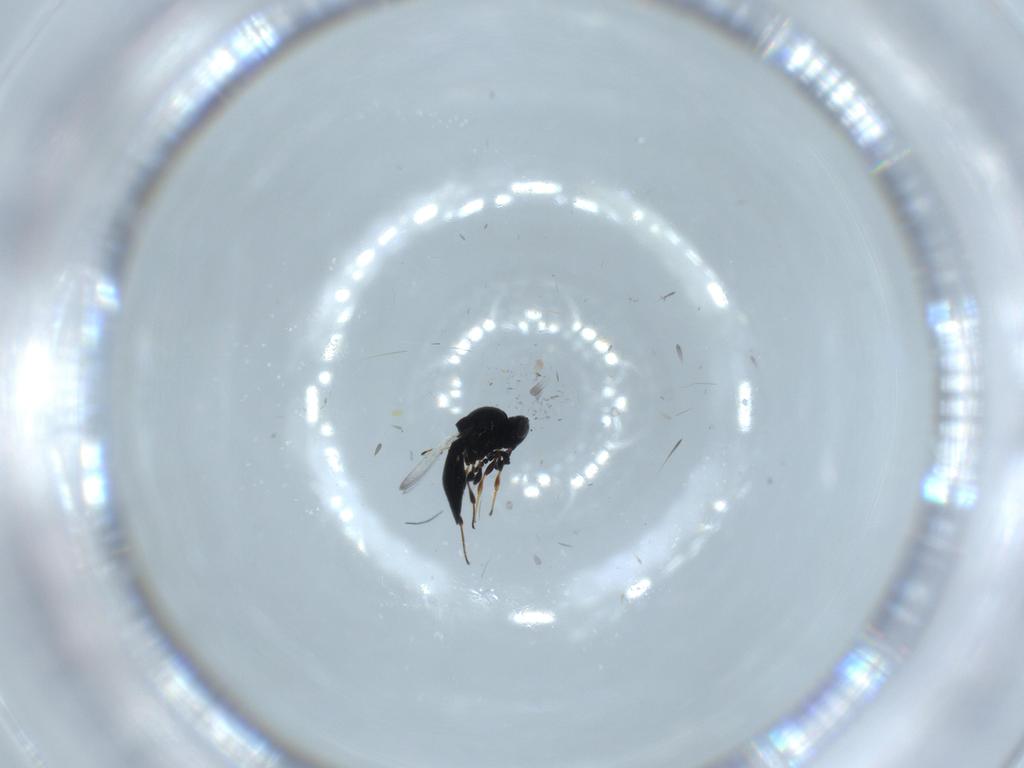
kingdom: Animalia
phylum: Arthropoda
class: Insecta
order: Hymenoptera
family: Platygastridae
